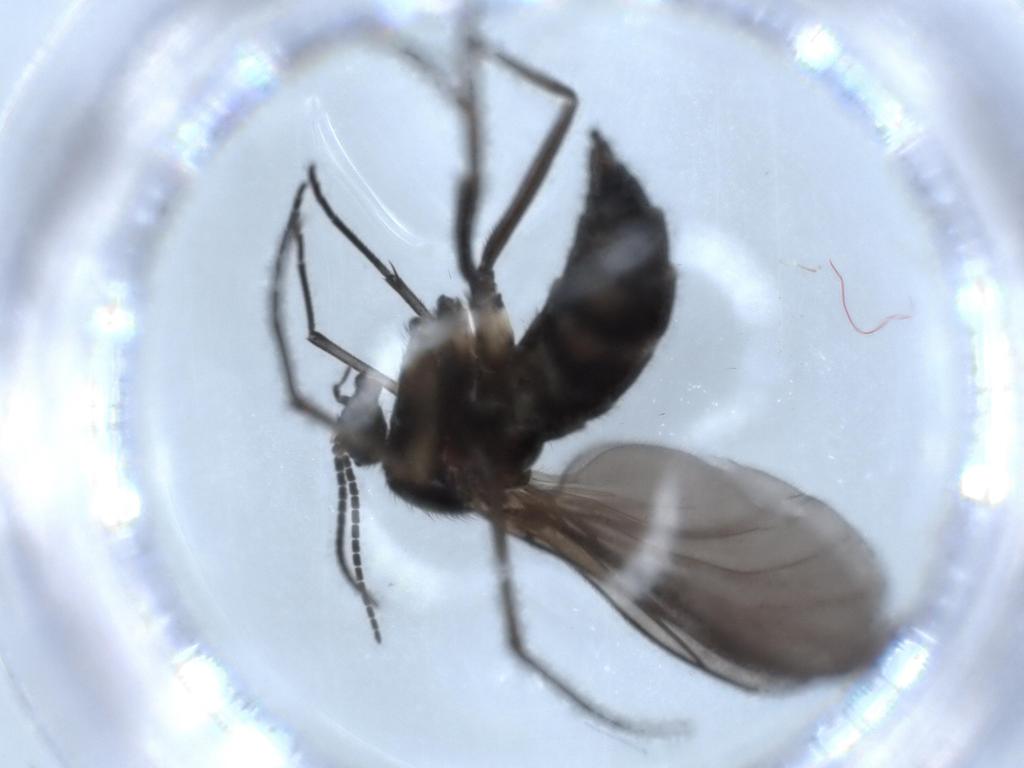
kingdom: Animalia
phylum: Arthropoda
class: Insecta
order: Diptera
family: Sciaridae
